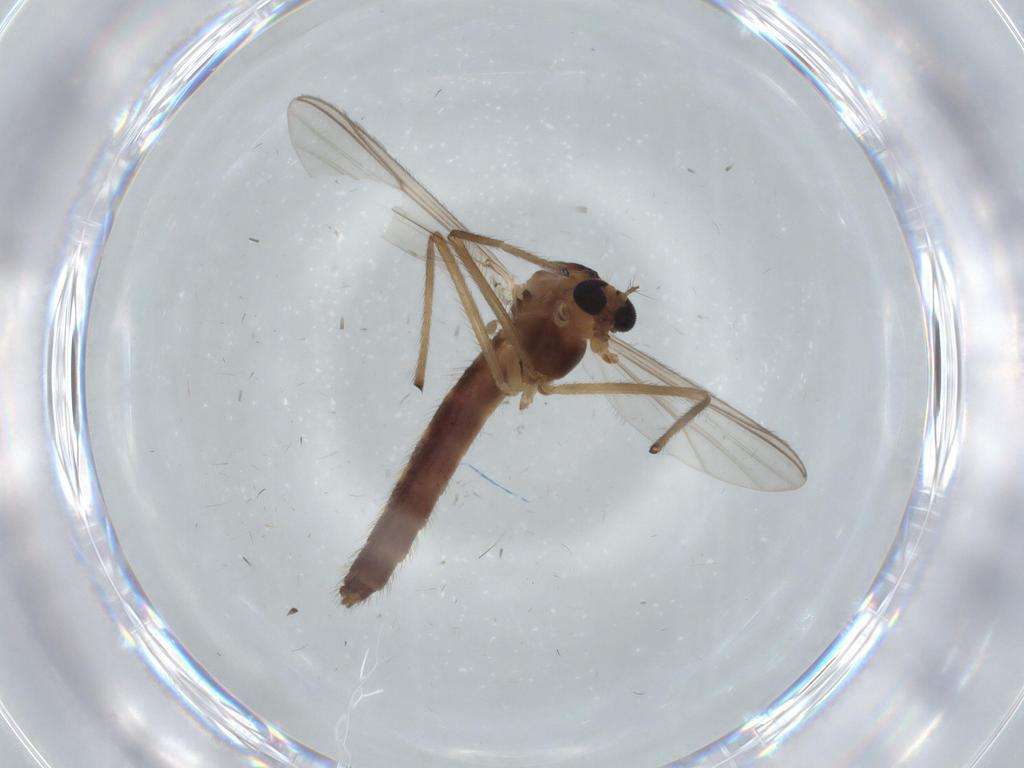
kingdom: Animalia
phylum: Arthropoda
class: Insecta
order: Diptera
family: Chironomidae
